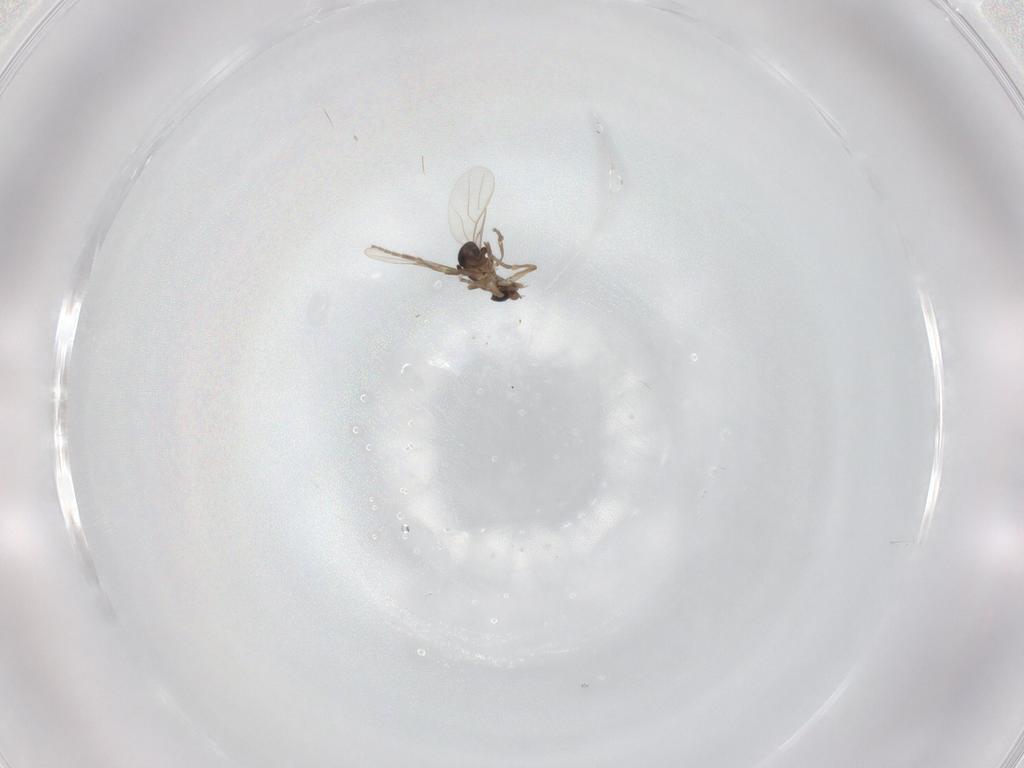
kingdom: Animalia
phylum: Arthropoda
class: Insecta
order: Diptera
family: Phoridae
